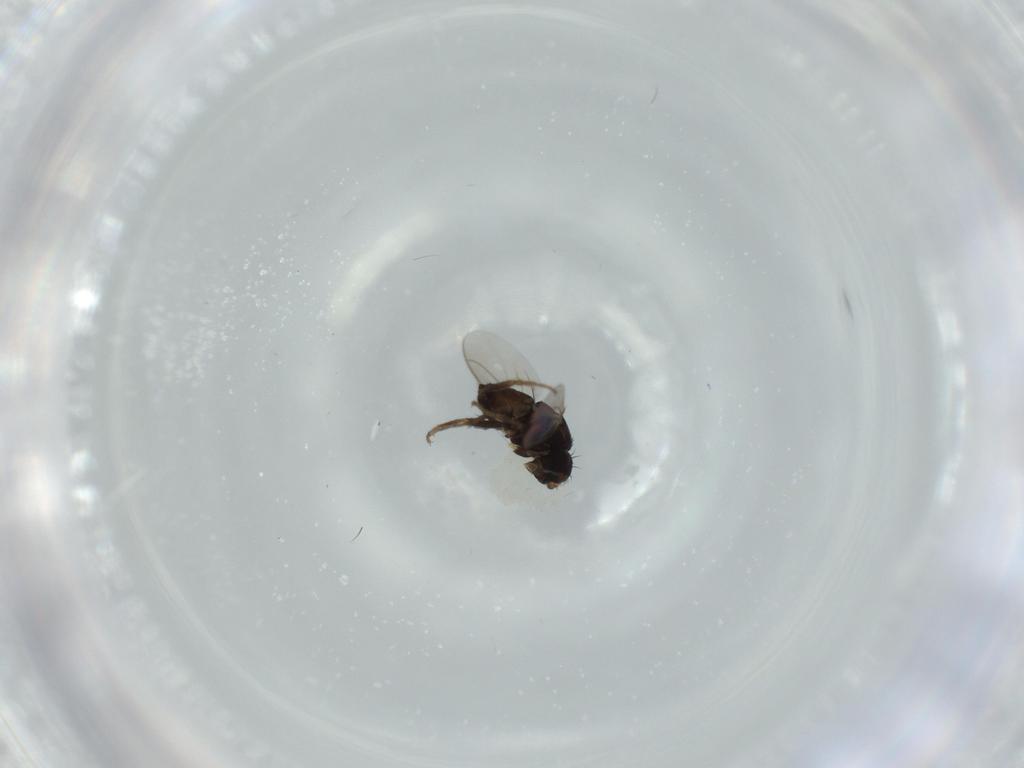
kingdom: Animalia
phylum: Arthropoda
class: Insecta
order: Diptera
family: Sphaeroceridae
